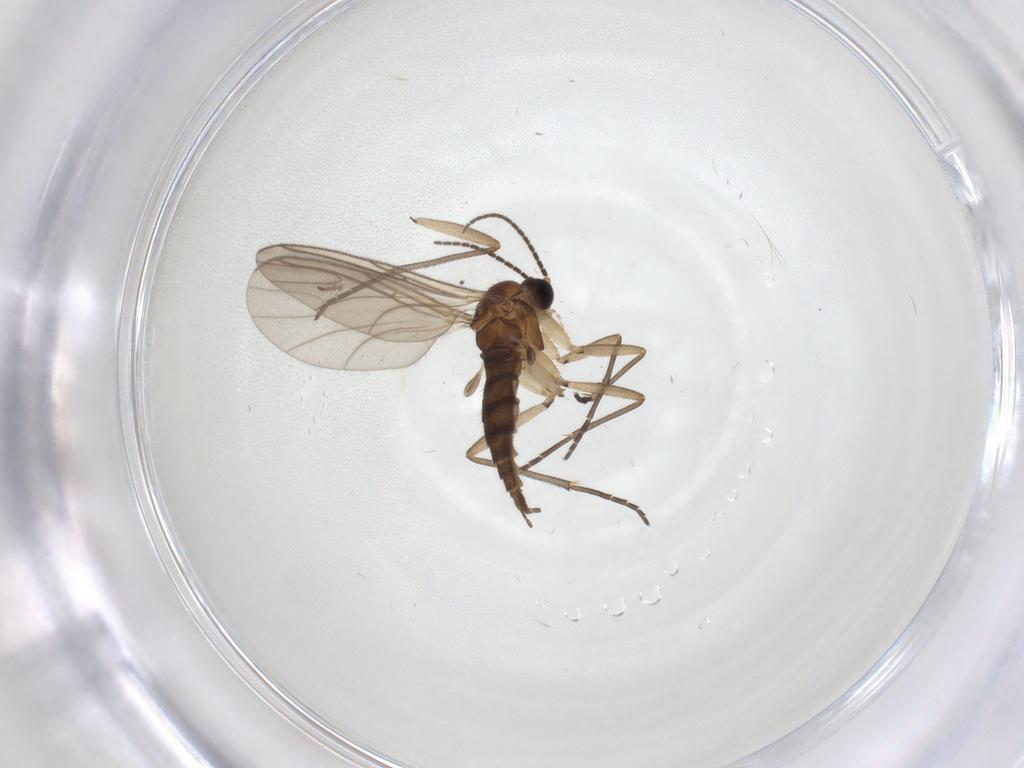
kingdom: Animalia
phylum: Arthropoda
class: Insecta
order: Diptera
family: Sciaridae
